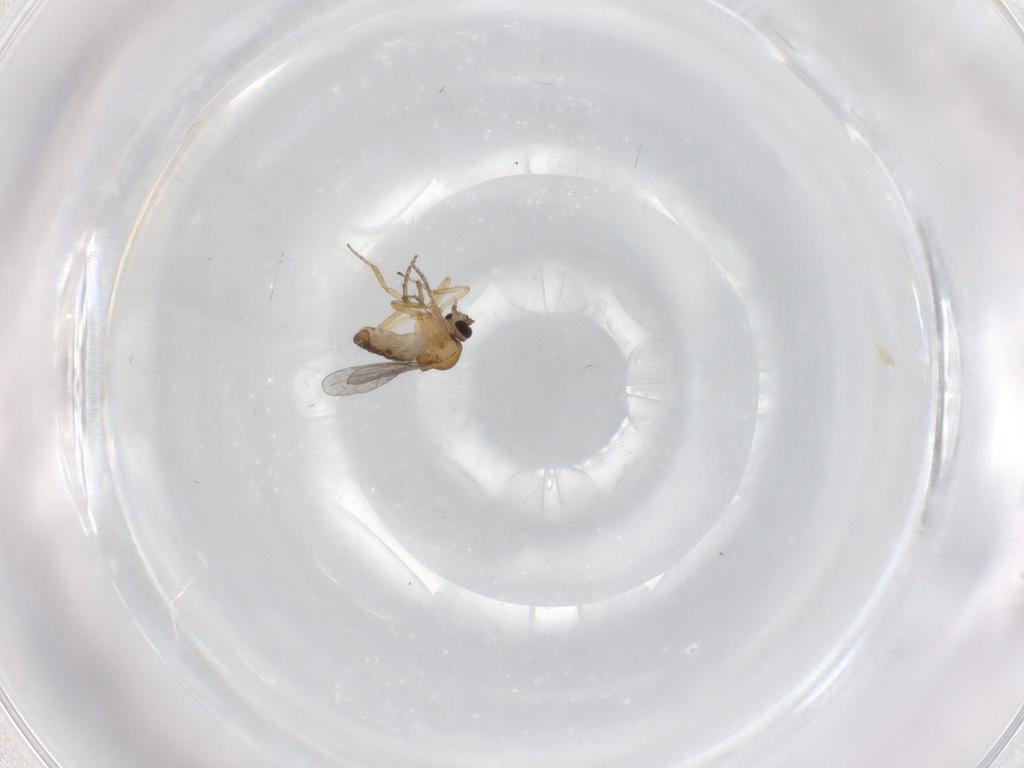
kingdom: Animalia
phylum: Arthropoda
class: Insecta
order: Diptera
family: Ceratopogonidae
